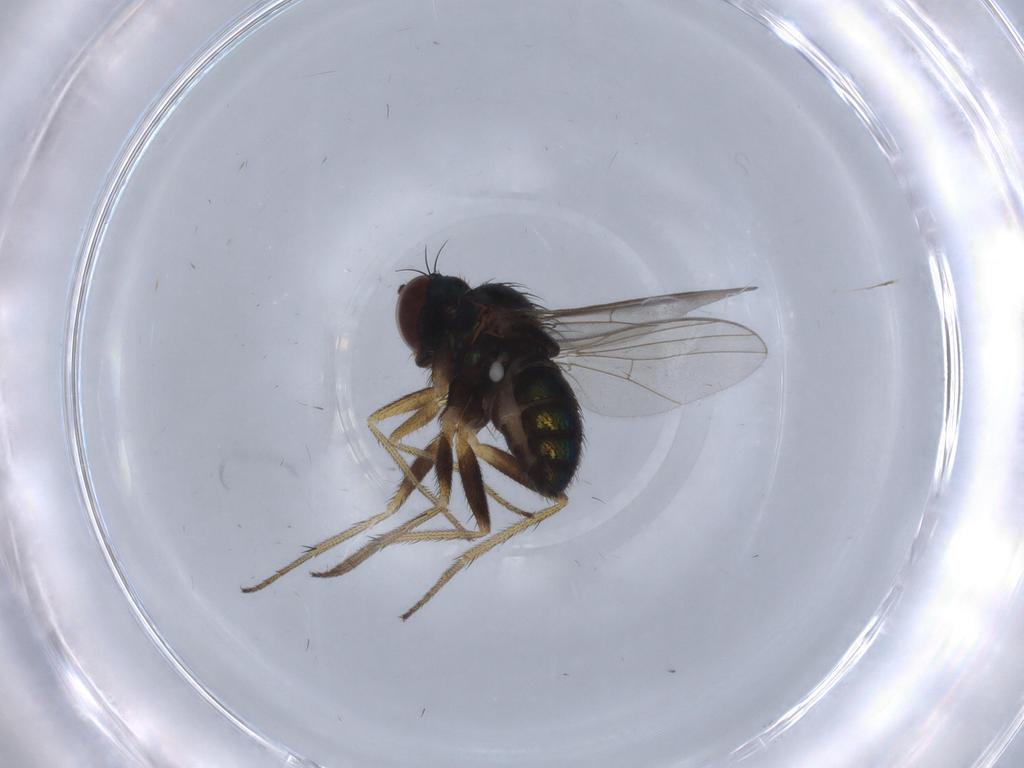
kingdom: Animalia
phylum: Arthropoda
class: Insecta
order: Diptera
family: Dolichopodidae
